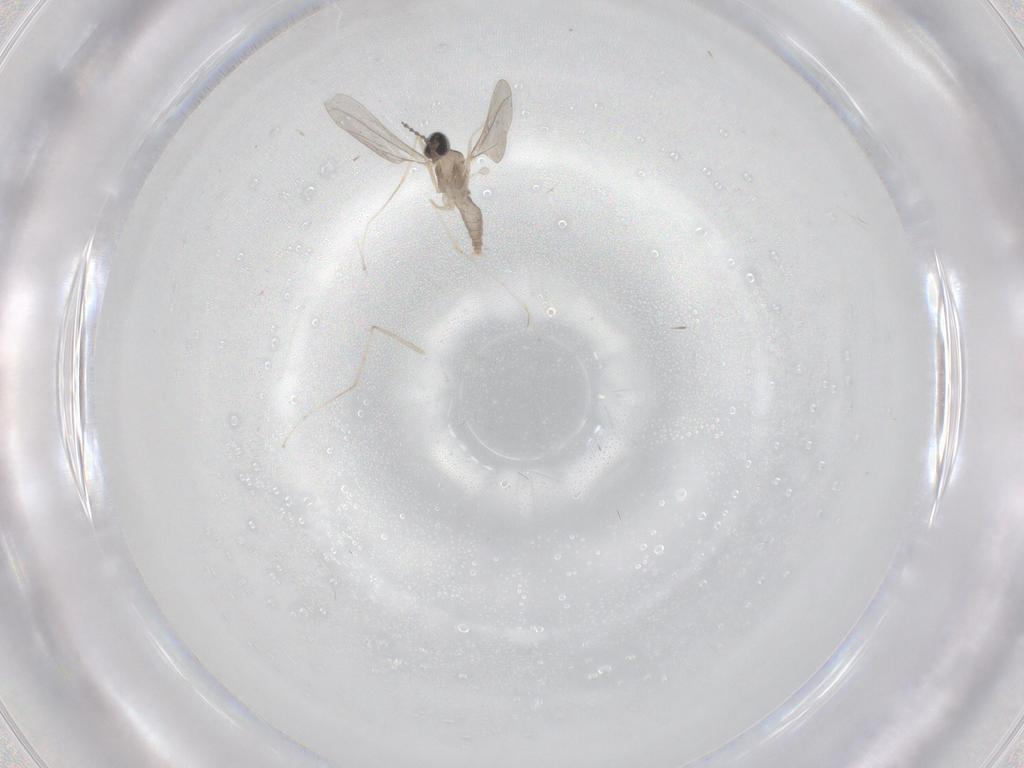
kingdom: Animalia
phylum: Arthropoda
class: Insecta
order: Diptera
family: Cecidomyiidae
